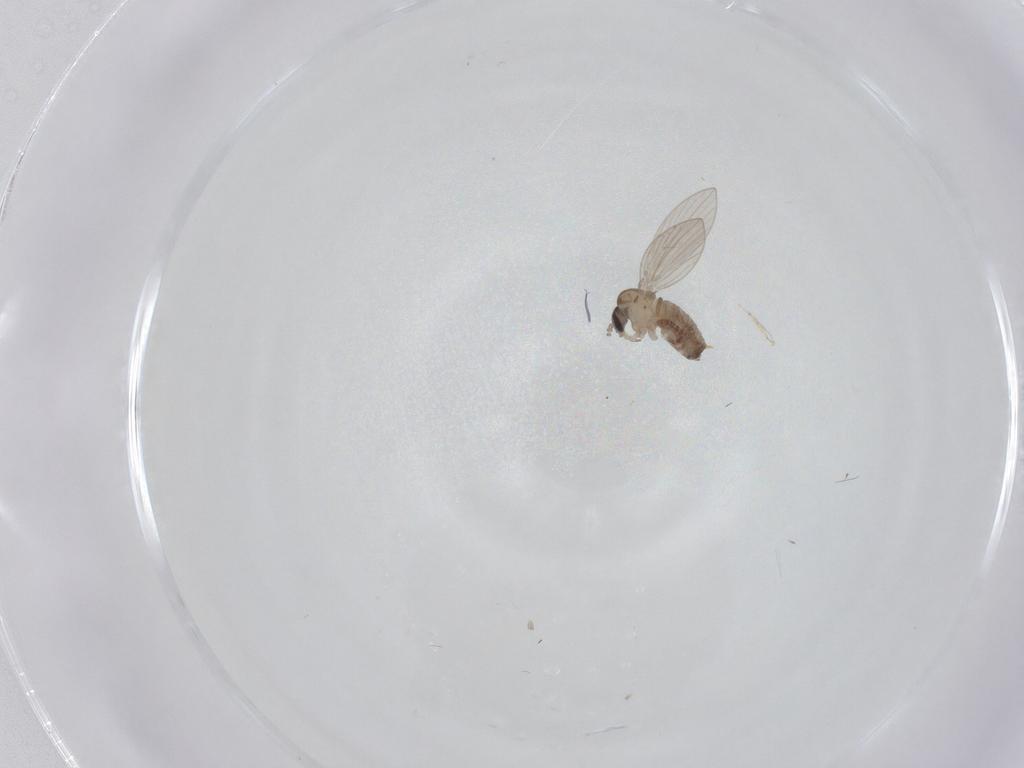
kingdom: Animalia
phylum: Arthropoda
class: Insecta
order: Diptera
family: Psychodidae
